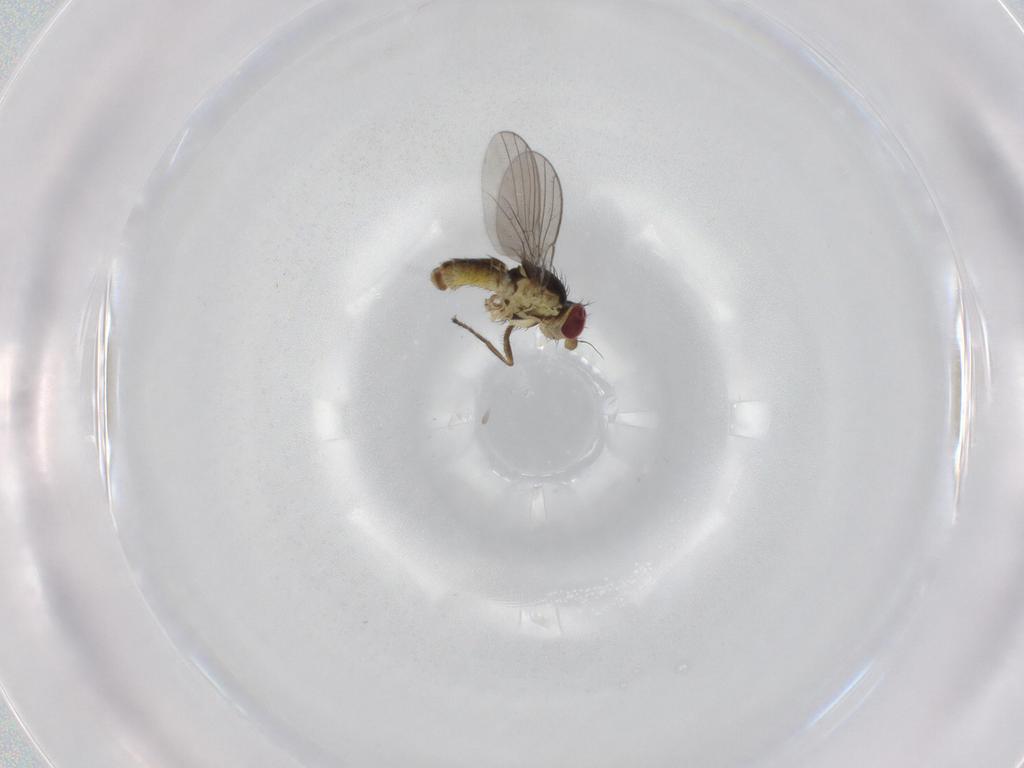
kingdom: Animalia
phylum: Arthropoda
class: Insecta
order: Diptera
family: Agromyzidae
